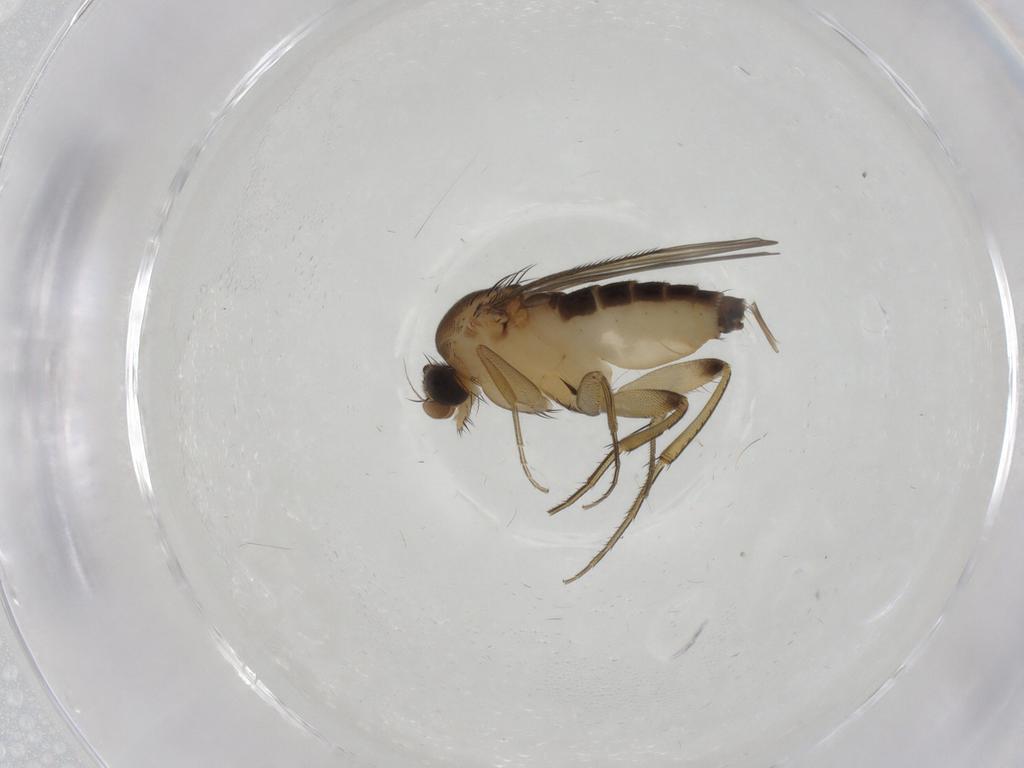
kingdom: Animalia
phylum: Arthropoda
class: Insecta
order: Diptera
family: Phoridae
